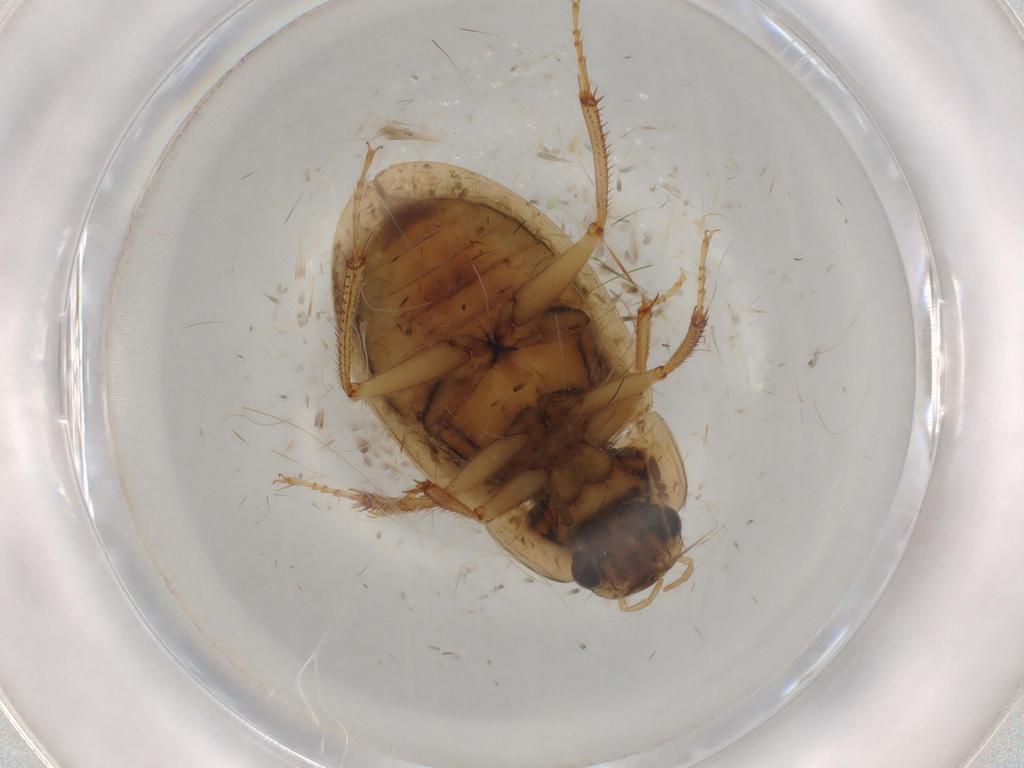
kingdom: Animalia
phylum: Arthropoda
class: Insecta
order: Coleoptera
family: Hydrophilidae
